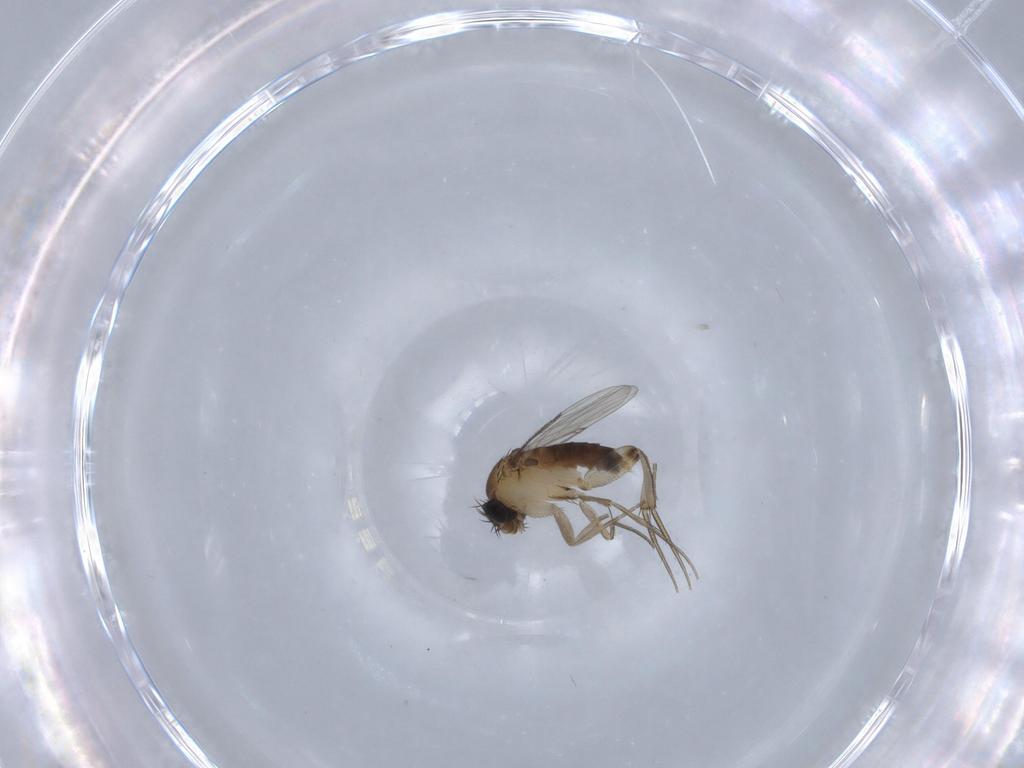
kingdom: Animalia
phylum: Arthropoda
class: Insecta
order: Diptera
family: Phoridae
